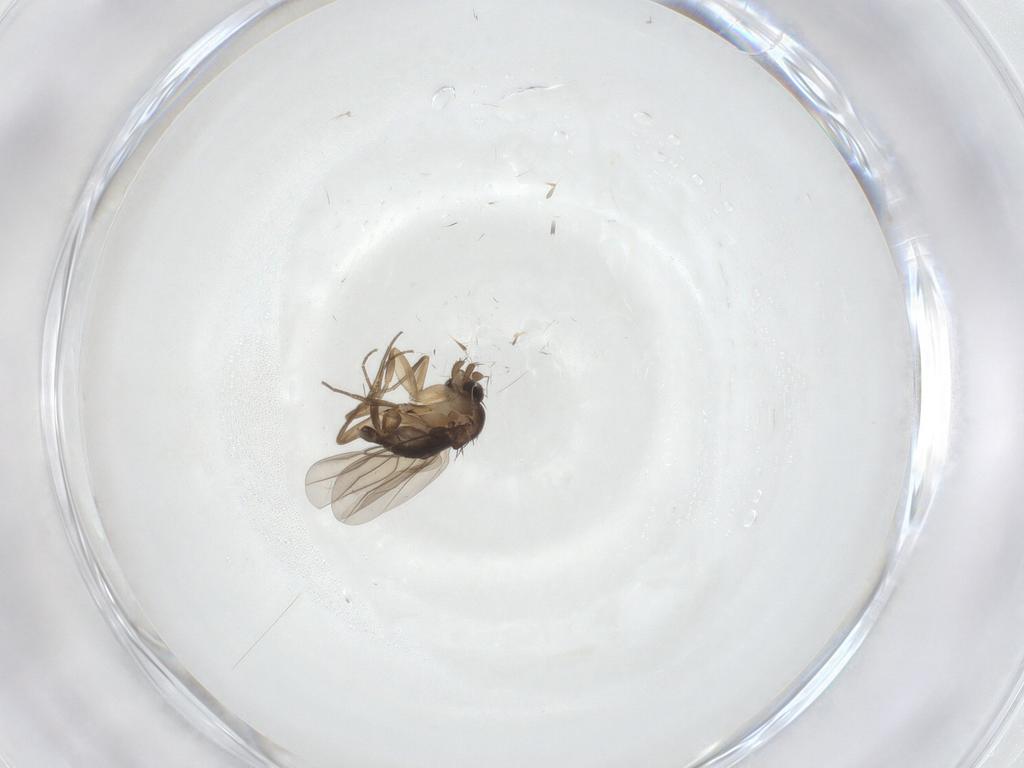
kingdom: Animalia
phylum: Arthropoda
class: Insecta
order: Diptera
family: Phoridae
